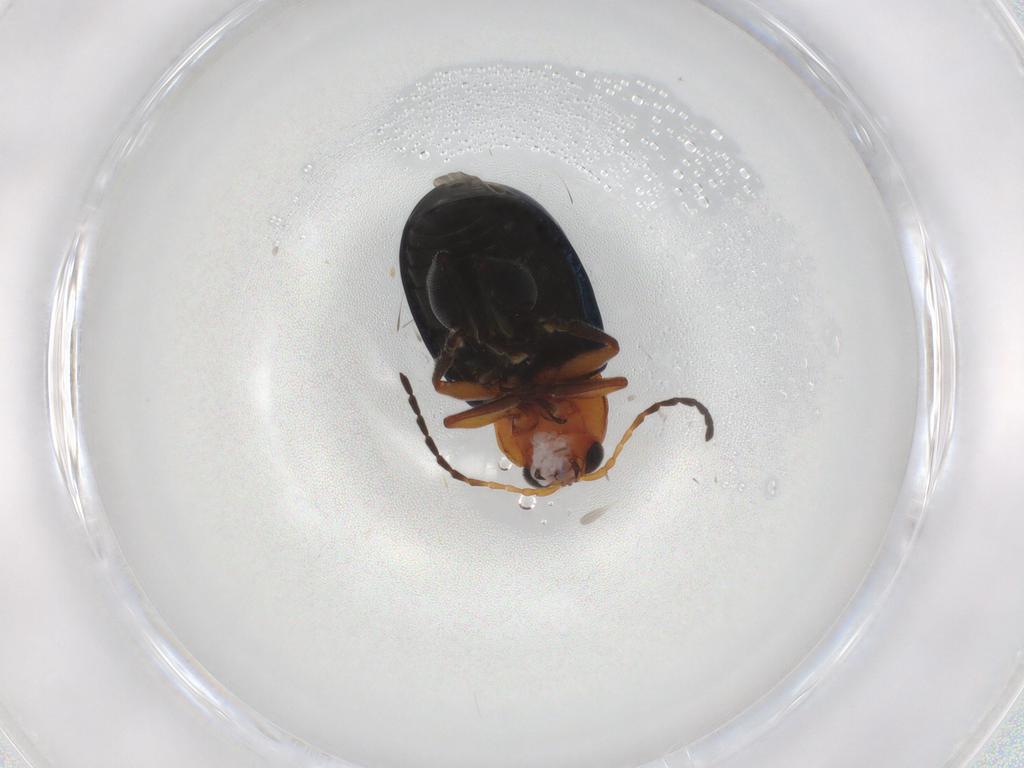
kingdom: Animalia
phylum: Arthropoda
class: Insecta
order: Coleoptera
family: Chrysomelidae
